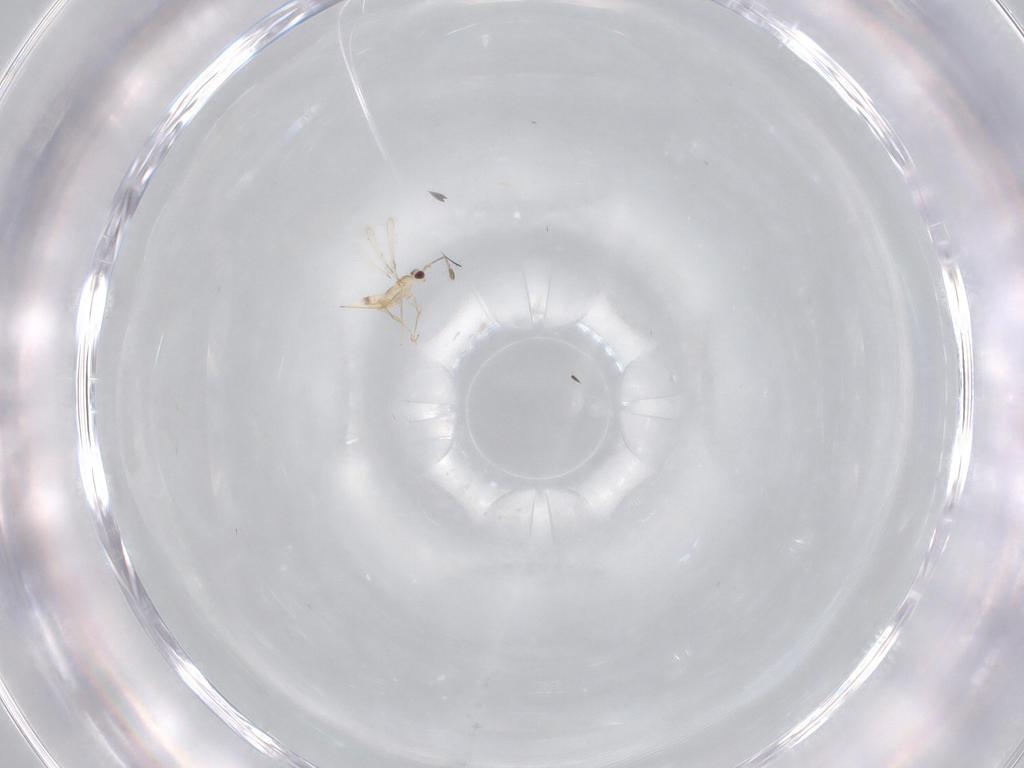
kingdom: Animalia
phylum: Arthropoda
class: Insecta
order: Hymenoptera
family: Mymaridae
